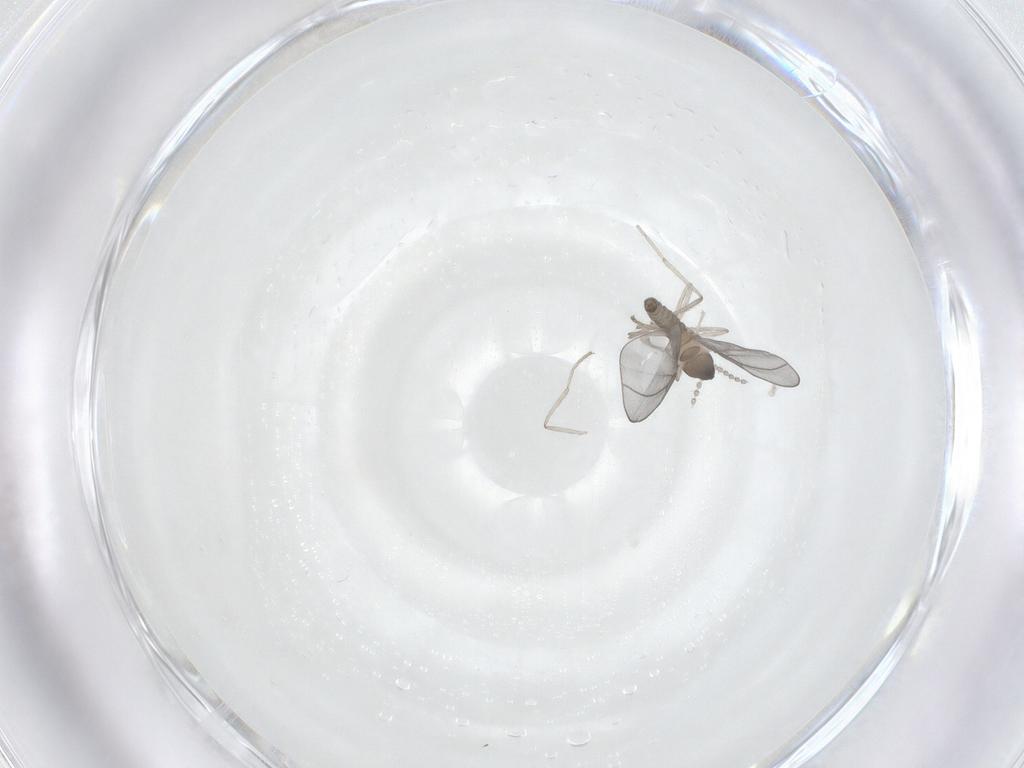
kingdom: Animalia
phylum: Arthropoda
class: Insecta
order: Diptera
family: Cecidomyiidae
